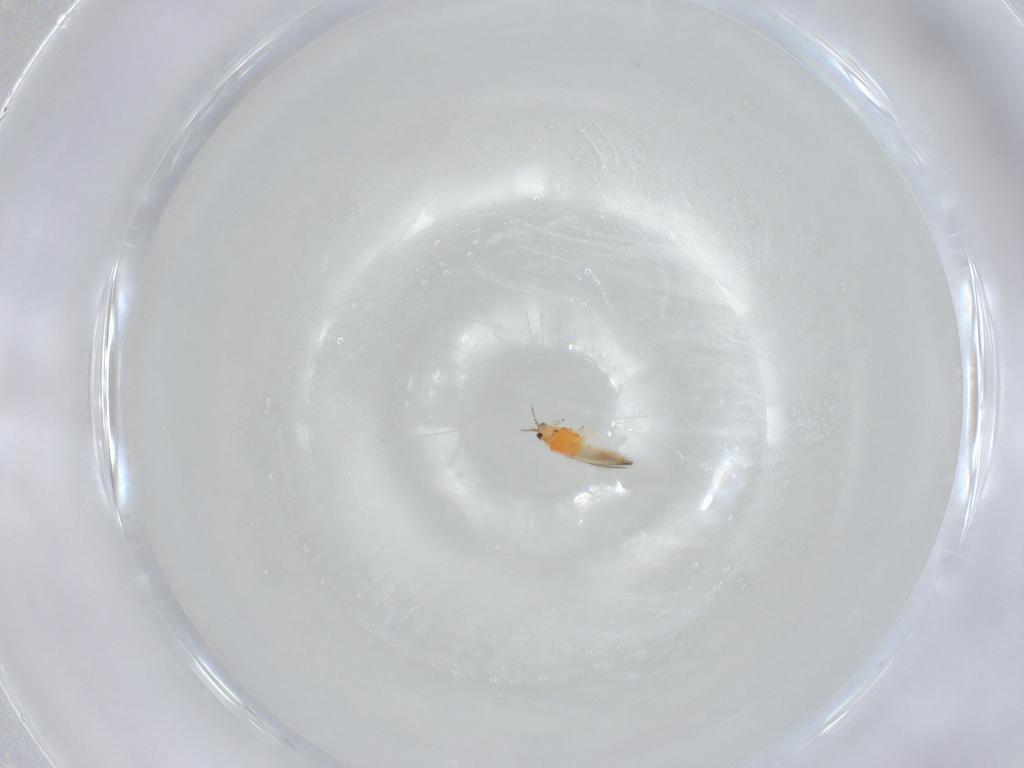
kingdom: Animalia
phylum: Arthropoda
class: Insecta
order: Thysanoptera
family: Thripidae
